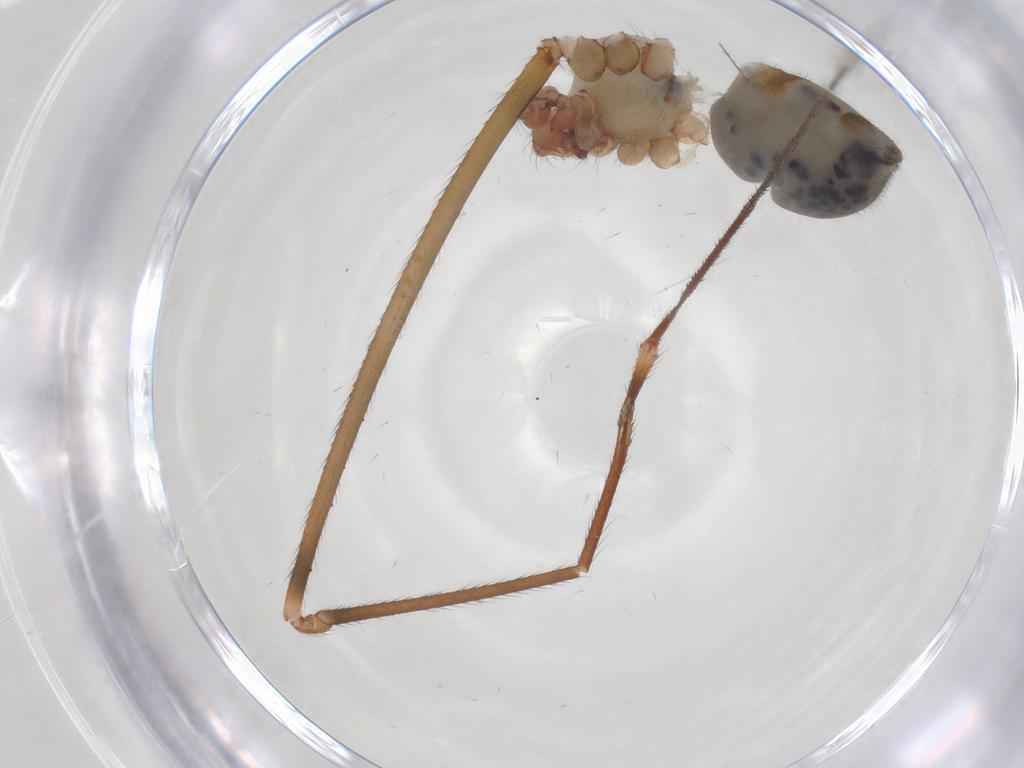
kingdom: Animalia
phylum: Arthropoda
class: Arachnida
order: Araneae
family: Pholcidae
